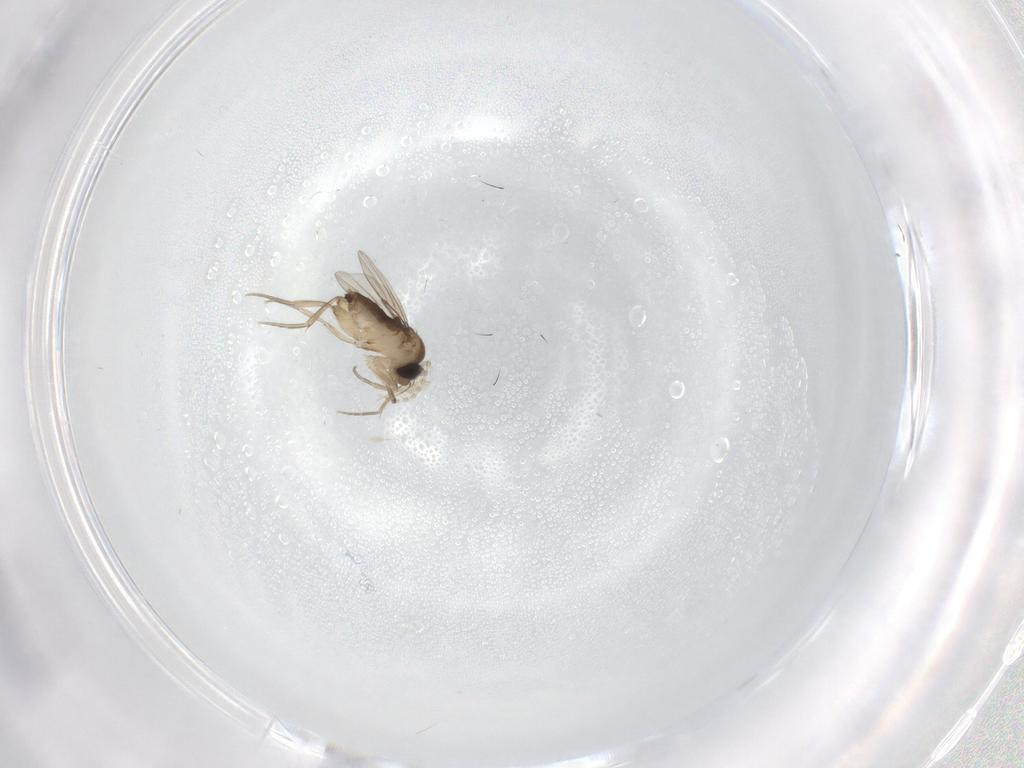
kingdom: Animalia
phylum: Arthropoda
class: Insecta
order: Diptera
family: Phoridae
